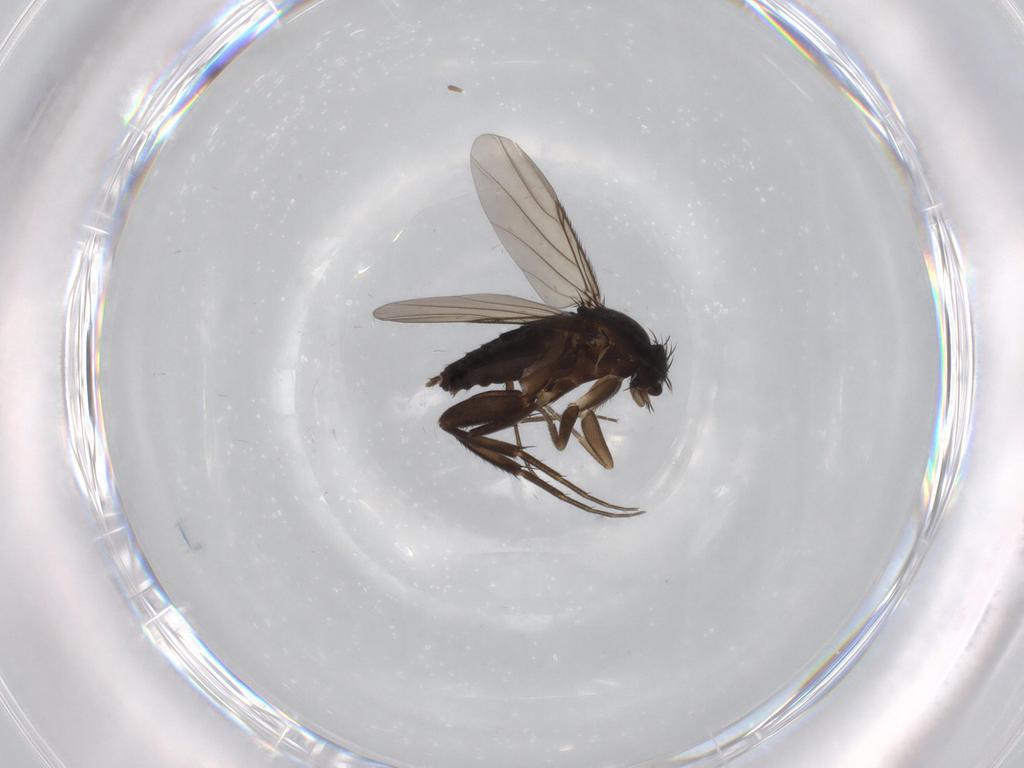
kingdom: Animalia
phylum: Arthropoda
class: Insecta
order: Diptera
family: Phoridae
